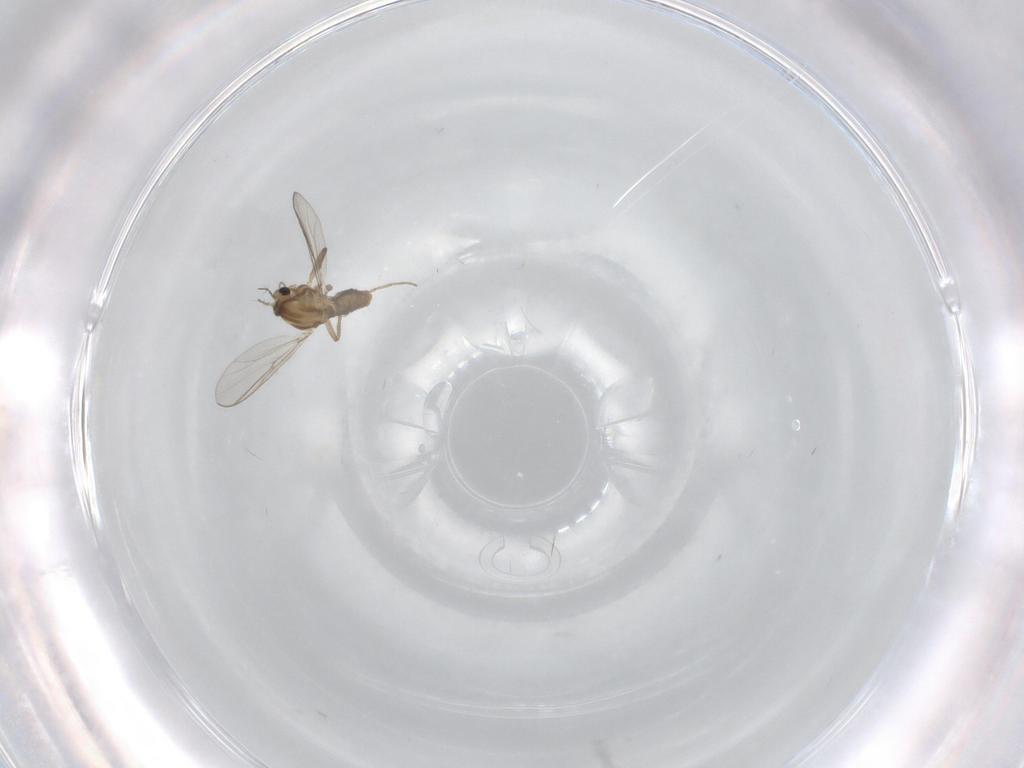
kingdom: Animalia
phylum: Arthropoda
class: Insecta
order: Diptera
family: Chironomidae
